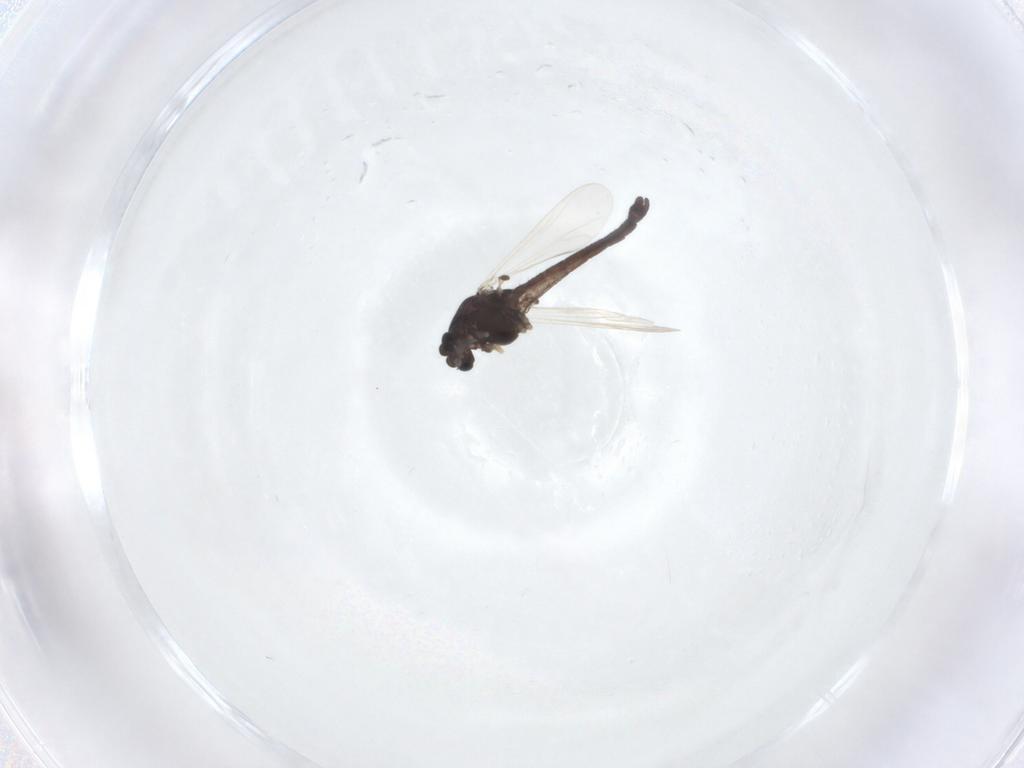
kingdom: Animalia
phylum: Arthropoda
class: Insecta
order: Diptera
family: Chironomidae
